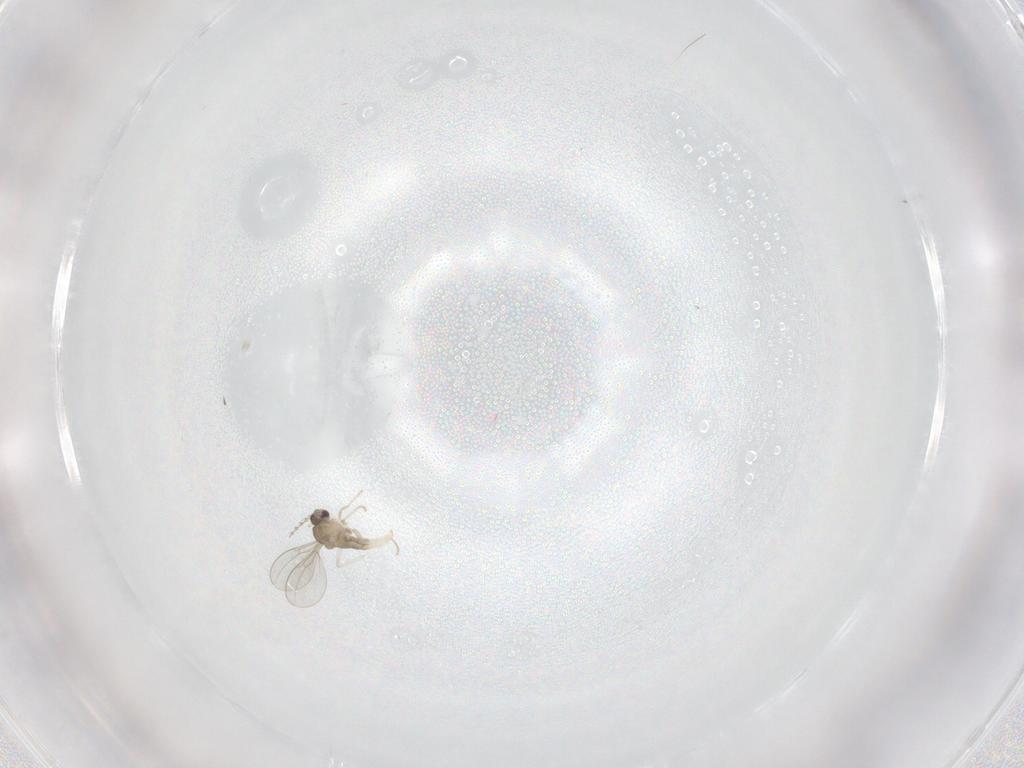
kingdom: Animalia
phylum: Arthropoda
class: Insecta
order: Diptera
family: Cecidomyiidae
